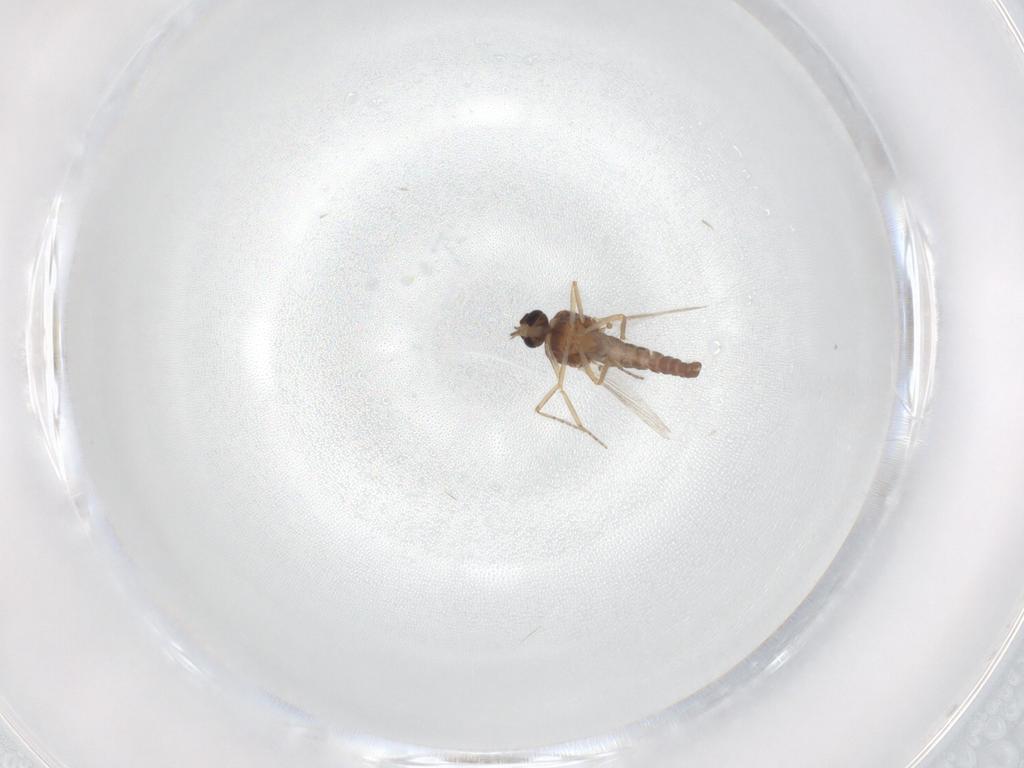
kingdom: Animalia
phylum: Arthropoda
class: Insecta
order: Diptera
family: Ceratopogonidae
